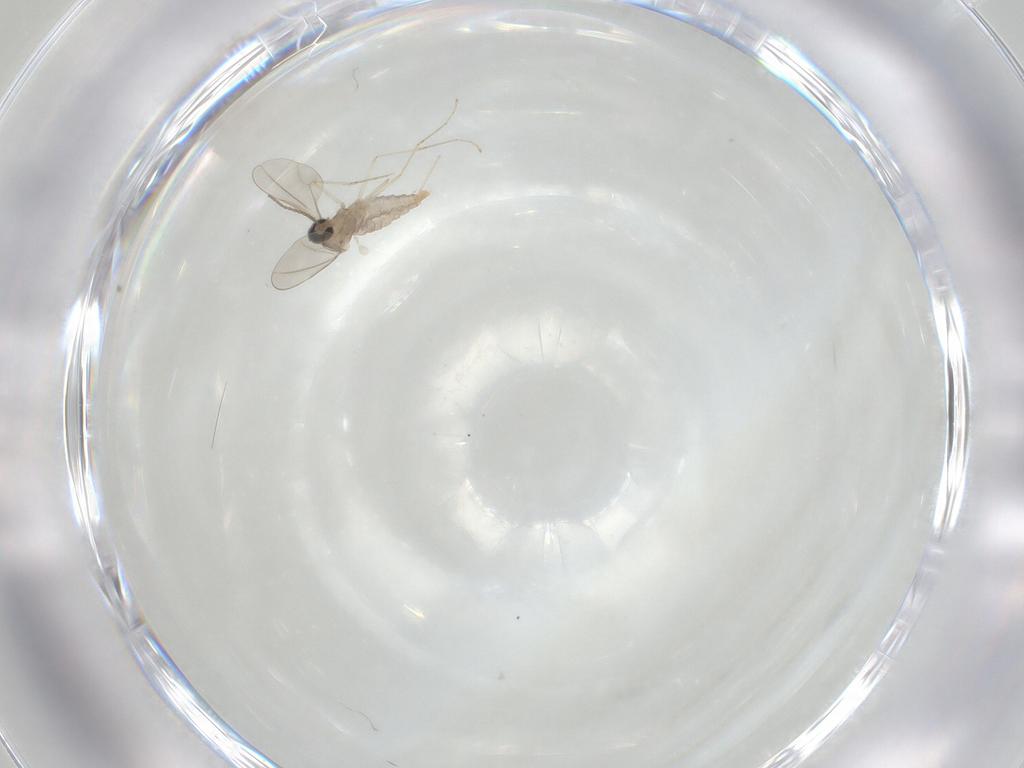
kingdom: Animalia
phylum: Arthropoda
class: Insecta
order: Diptera
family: Cecidomyiidae
